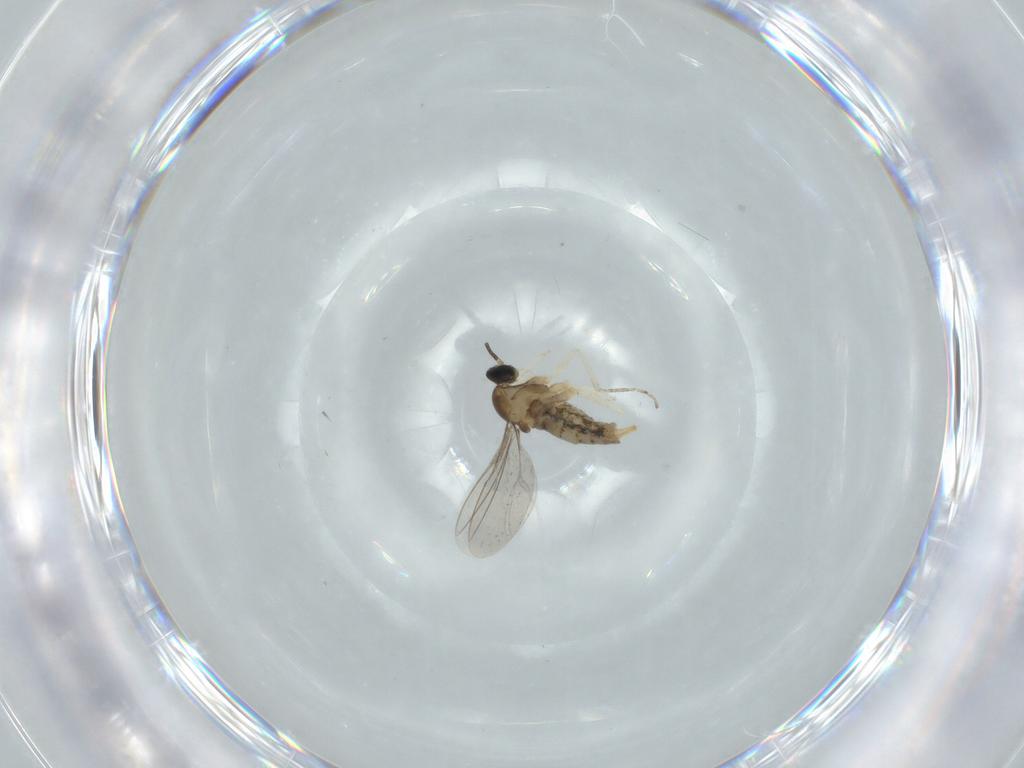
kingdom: Animalia
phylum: Arthropoda
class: Insecta
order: Diptera
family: Cecidomyiidae
